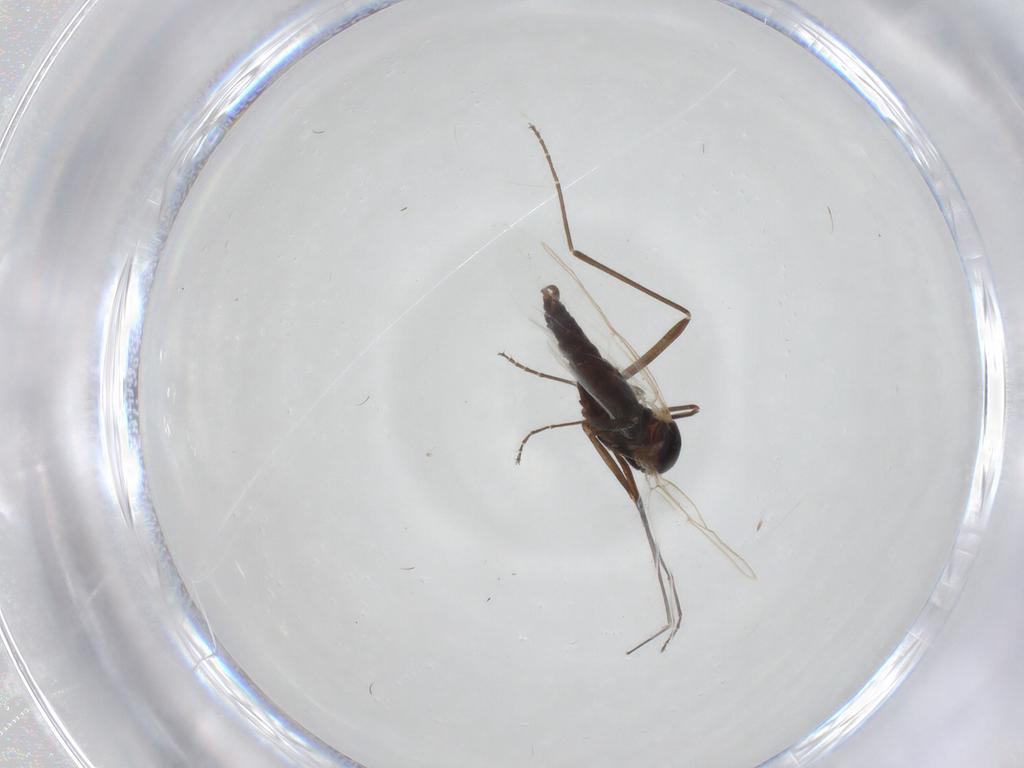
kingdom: Animalia
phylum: Arthropoda
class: Insecta
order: Diptera
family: Cecidomyiidae
